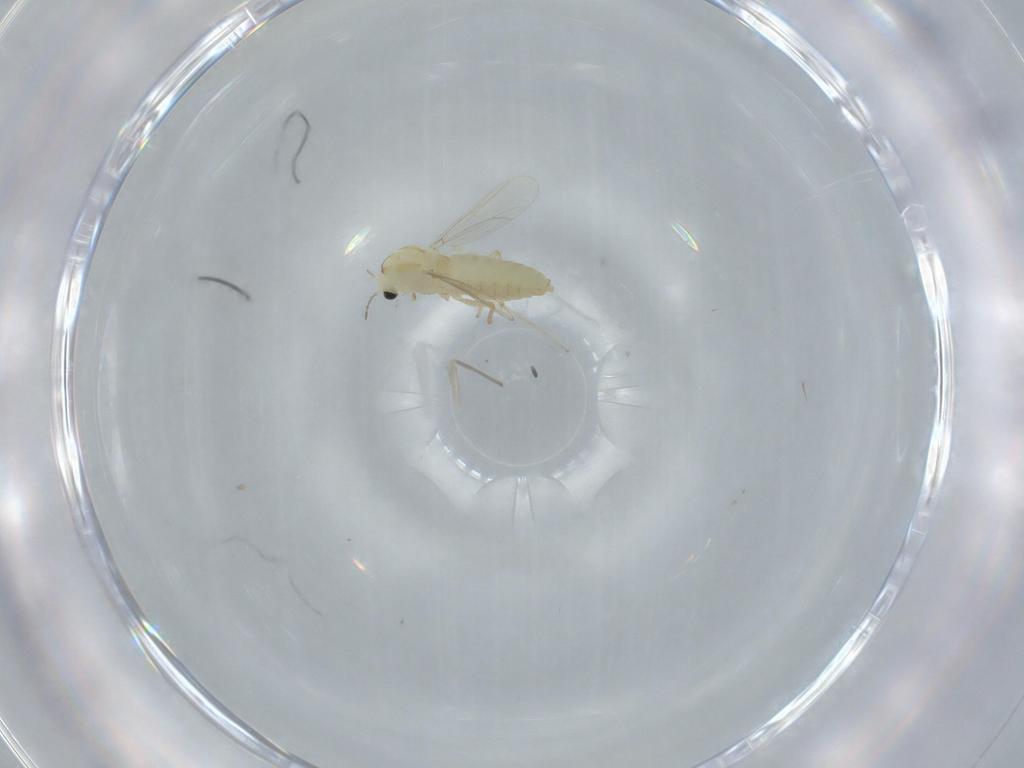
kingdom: Animalia
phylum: Arthropoda
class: Insecta
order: Diptera
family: Chironomidae
